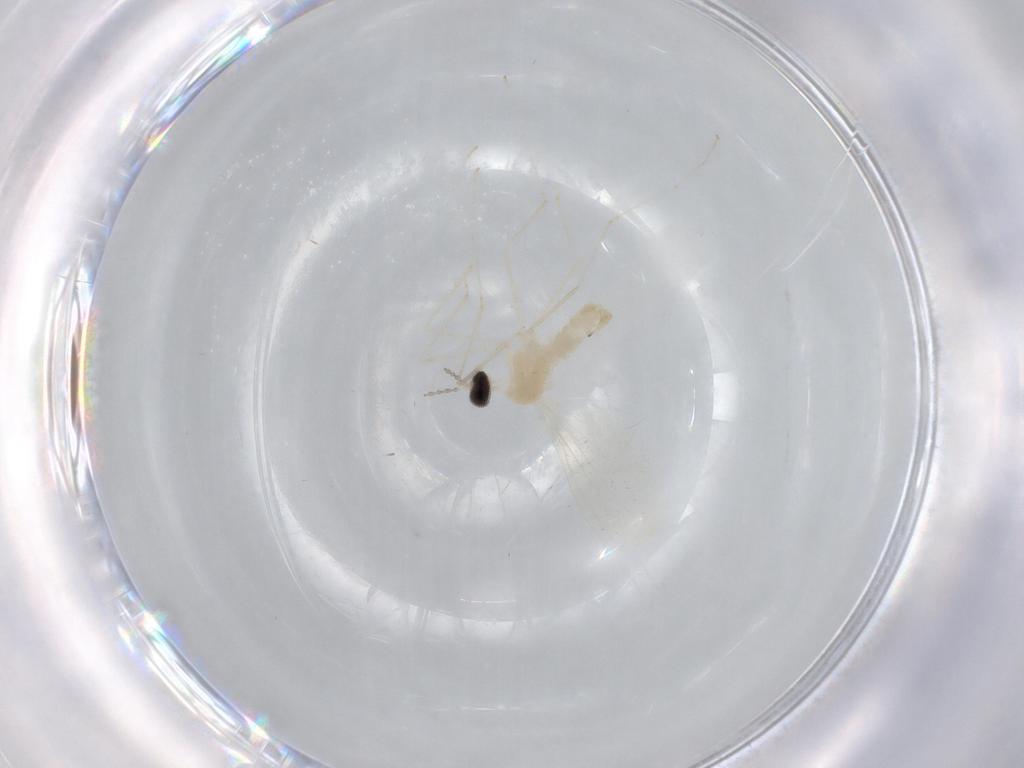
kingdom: Animalia
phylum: Arthropoda
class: Insecta
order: Diptera
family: Cecidomyiidae
